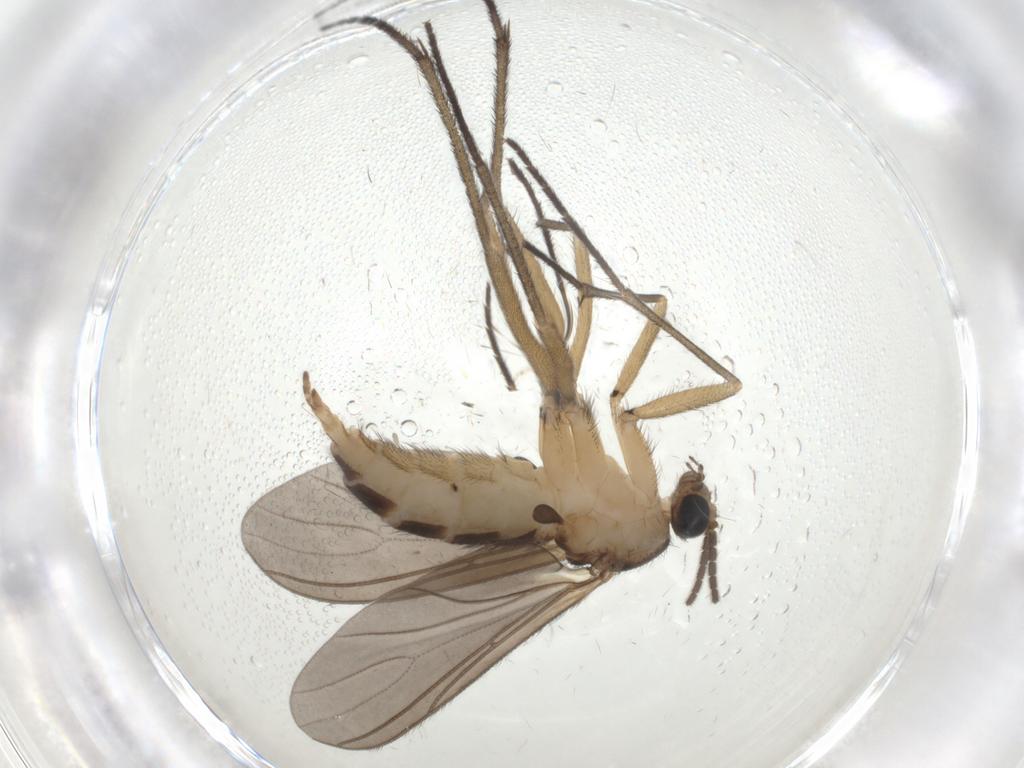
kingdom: Animalia
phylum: Arthropoda
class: Insecta
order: Diptera
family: Sciaridae
